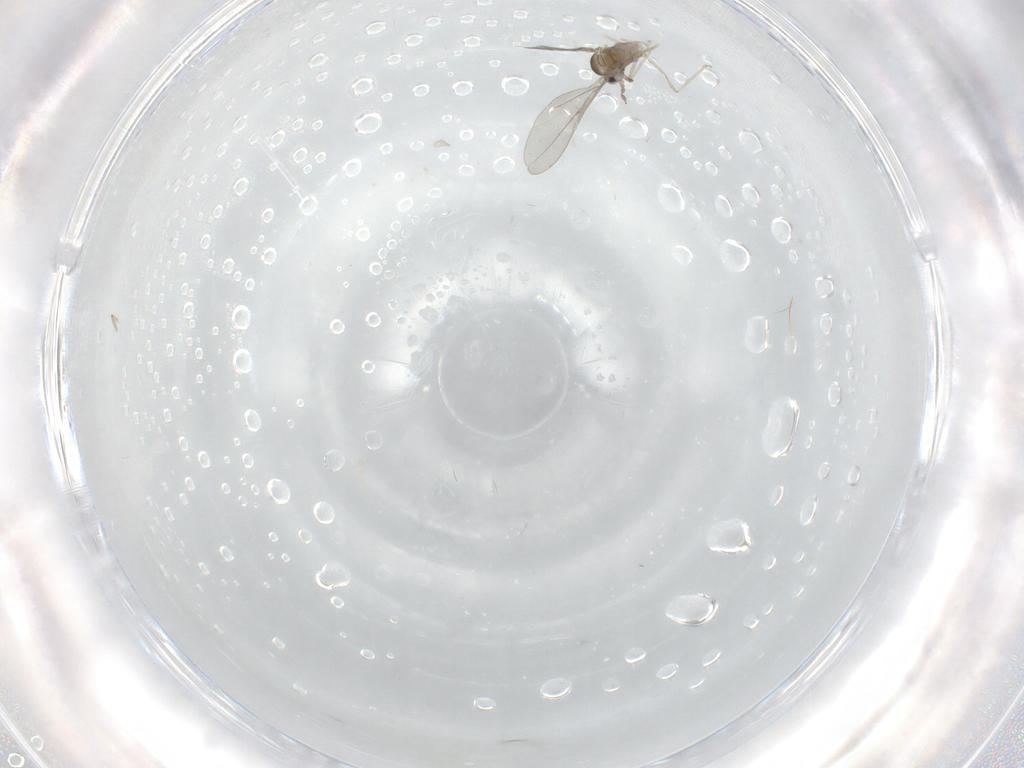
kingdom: Animalia
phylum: Arthropoda
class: Insecta
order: Diptera
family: Cecidomyiidae
